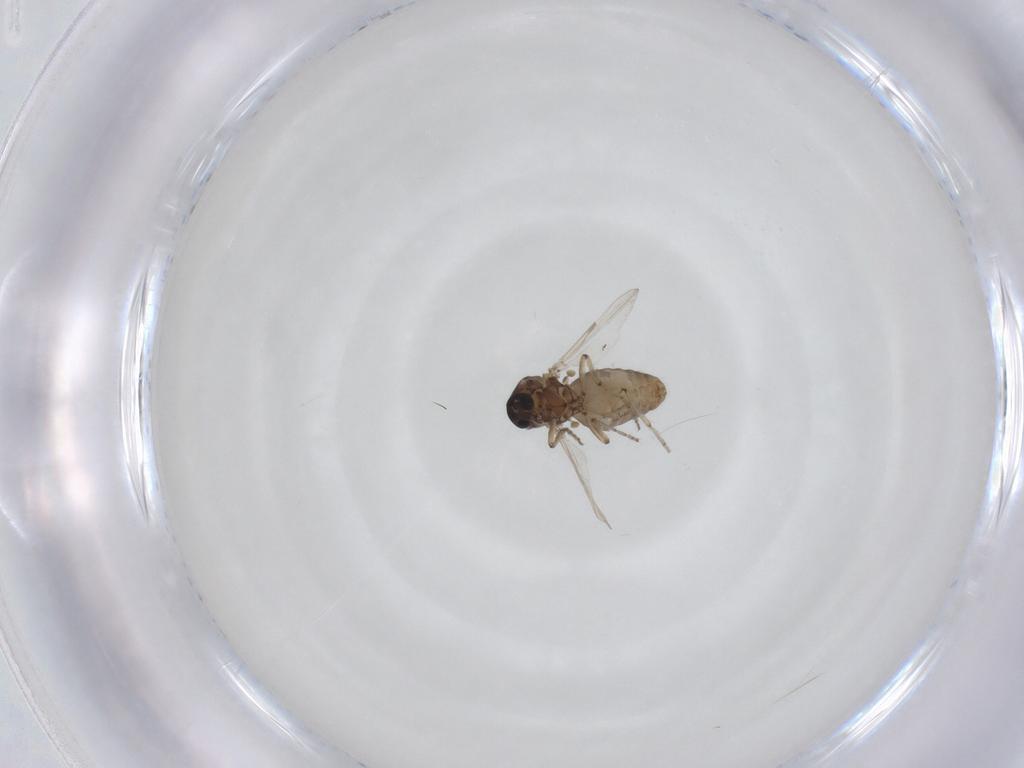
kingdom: Animalia
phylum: Arthropoda
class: Insecta
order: Diptera
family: Ceratopogonidae
